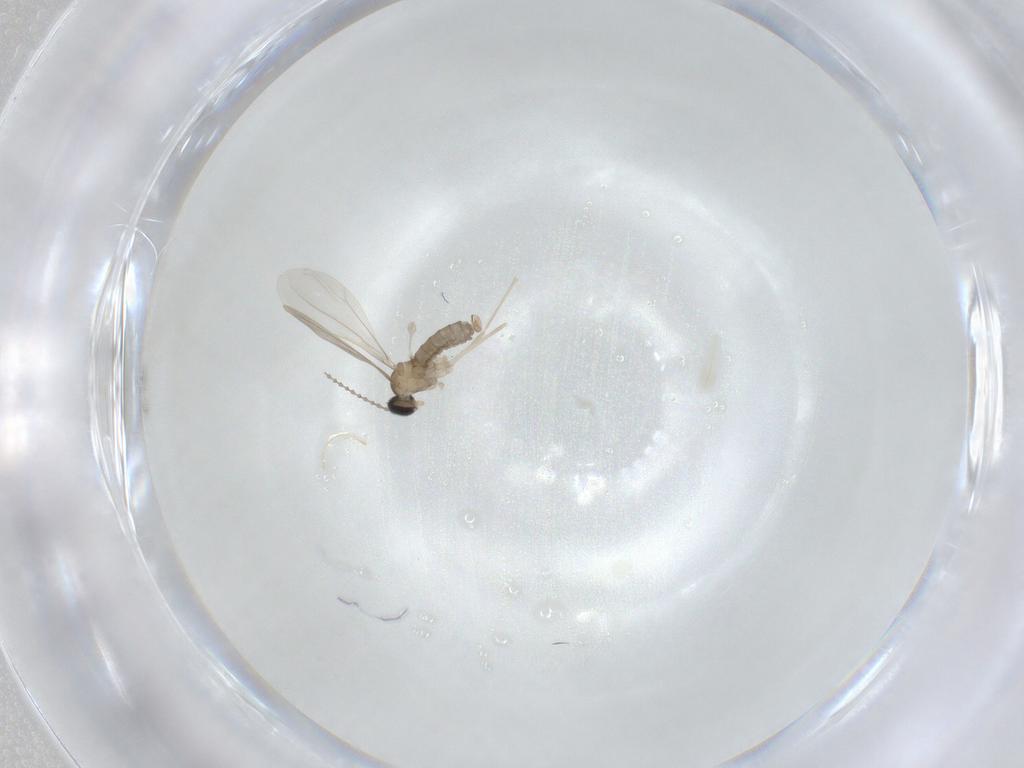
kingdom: Animalia
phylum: Arthropoda
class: Insecta
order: Diptera
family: Cecidomyiidae
